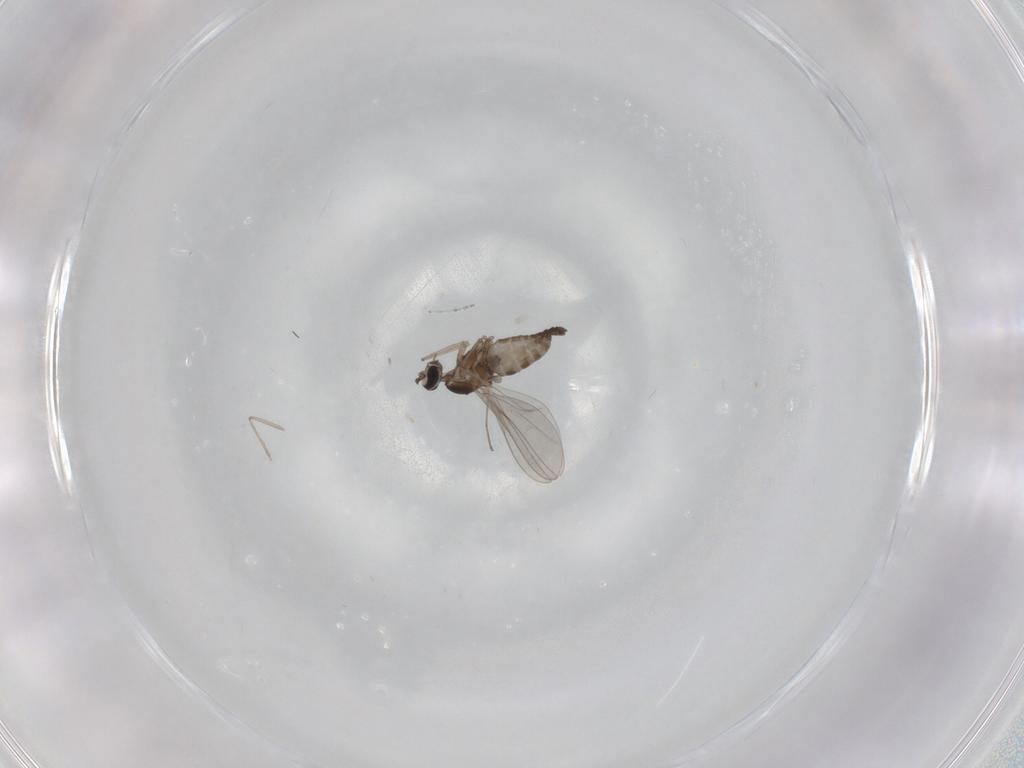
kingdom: Animalia
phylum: Arthropoda
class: Insecta
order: Diptera
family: Cecidomyiidae
